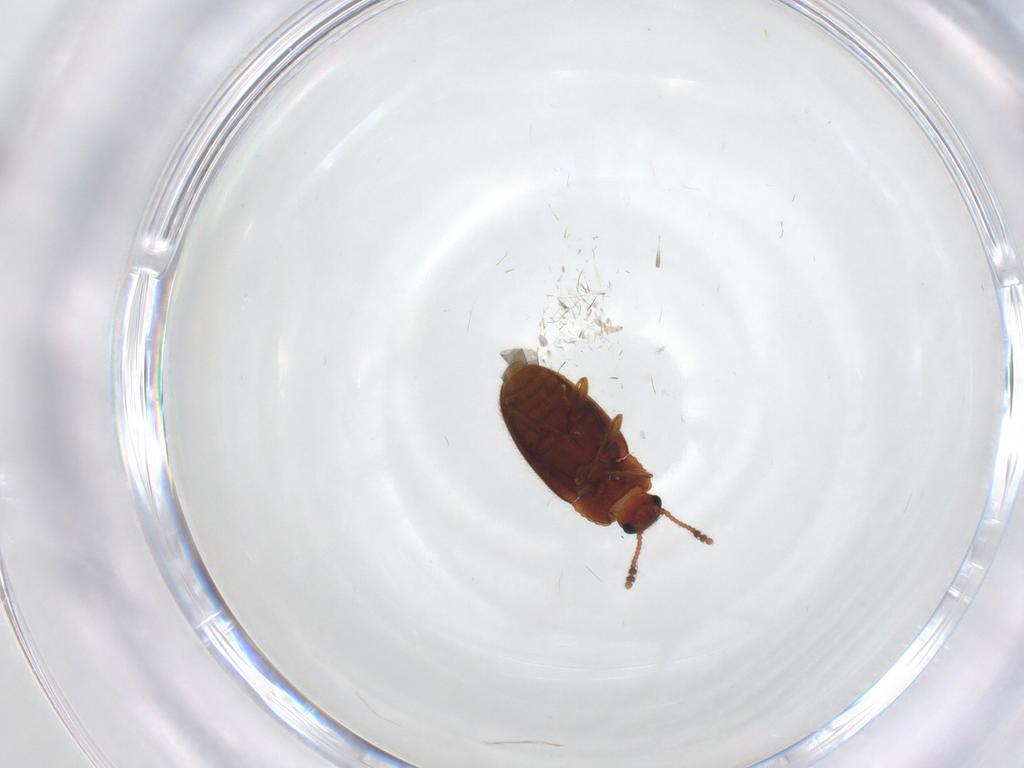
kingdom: Animalia
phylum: Arthropoda
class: Insecta
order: Coleoptera
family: Erotylidae
